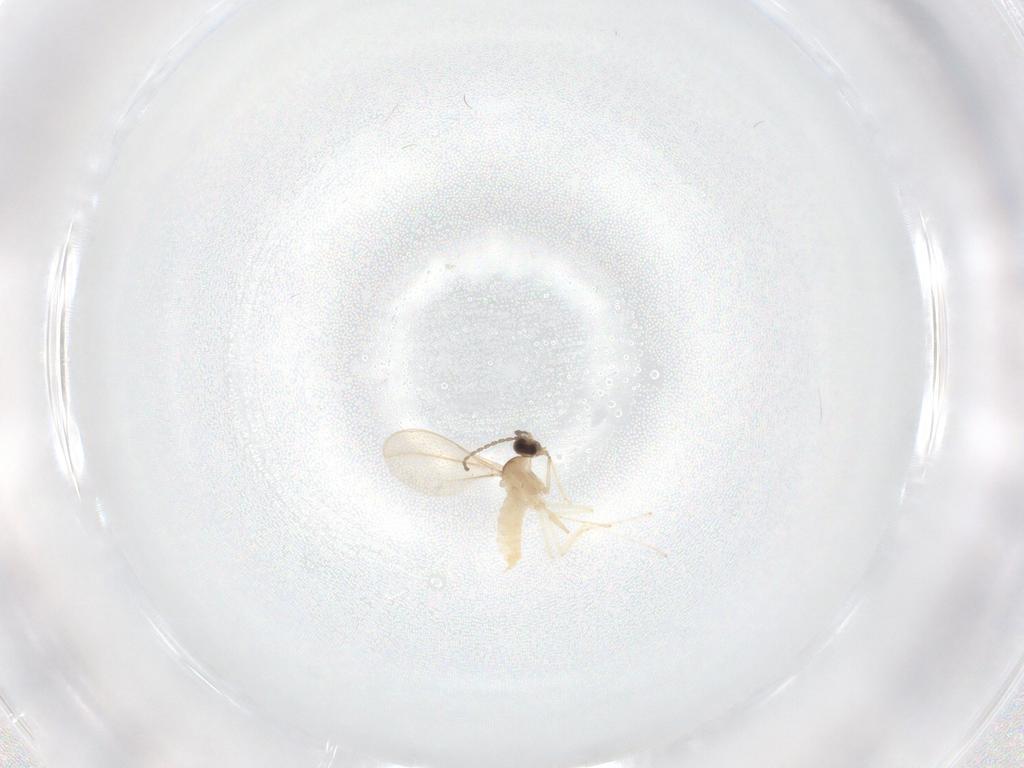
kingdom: Animalia
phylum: Arthropoda
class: Insecta
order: Diptera
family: Cecidomyiidae
